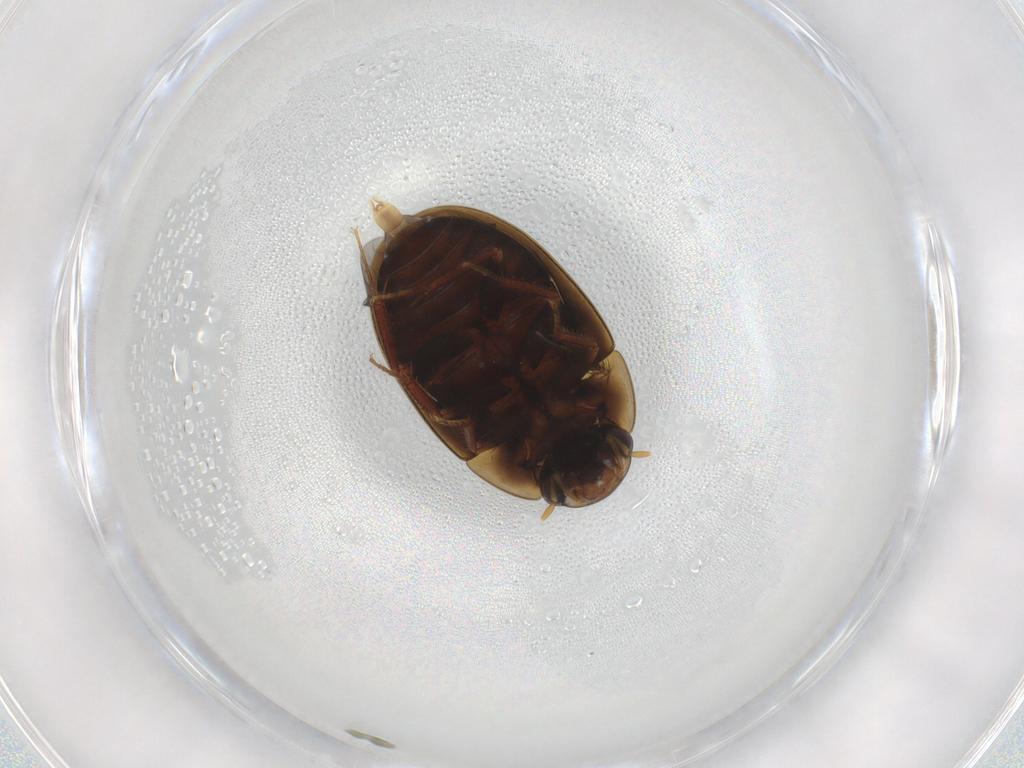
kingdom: Animalia
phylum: Arthropoda
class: Insecta
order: Coleoptera
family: Hydrophilidae
